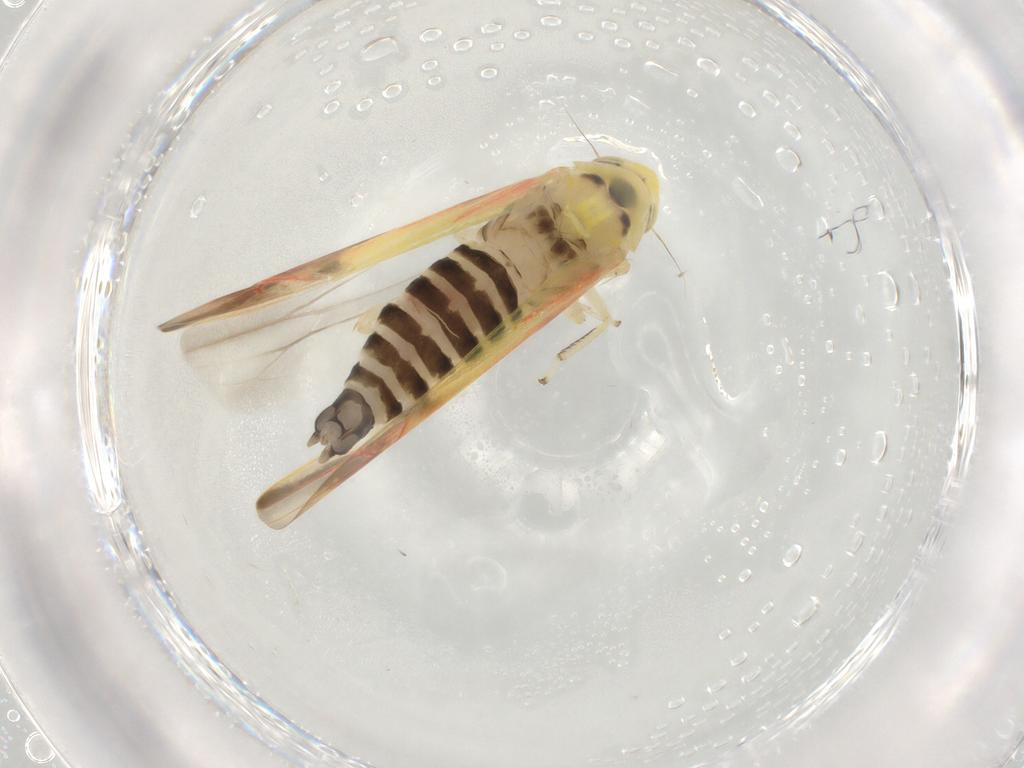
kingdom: Animalia
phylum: Arthropoda
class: Insecta
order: Hemiptera
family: Cicadellidae
